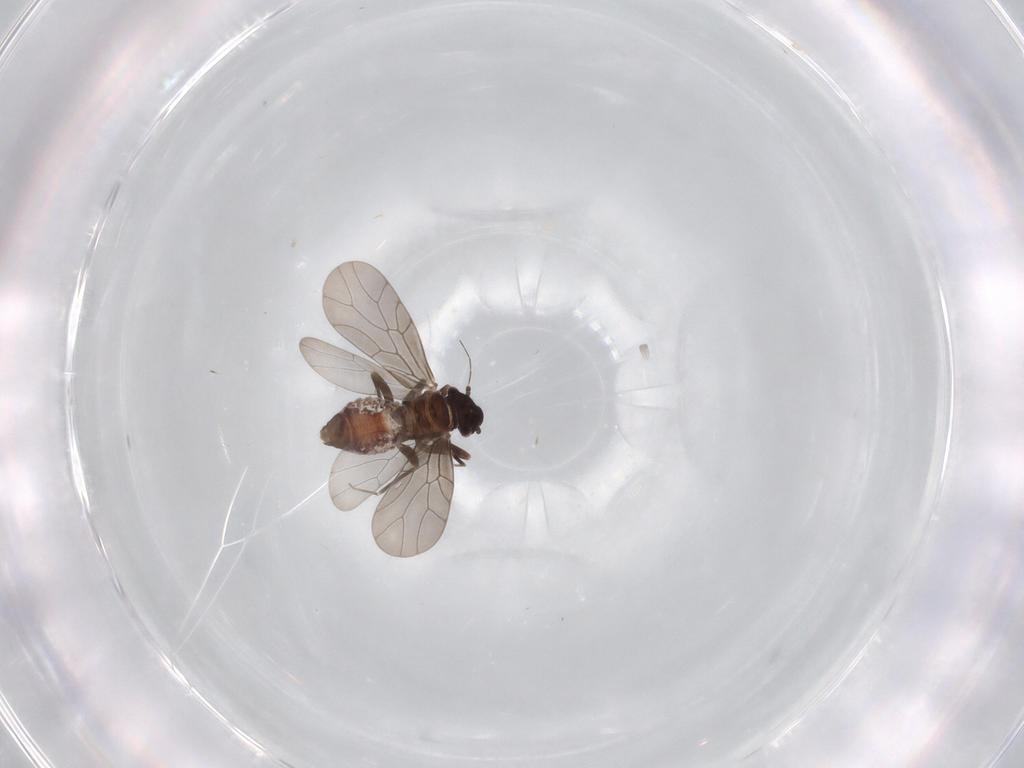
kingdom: Animalia
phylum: Arthropoda
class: Insecta
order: Psocodea
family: Lepidopsocidae
